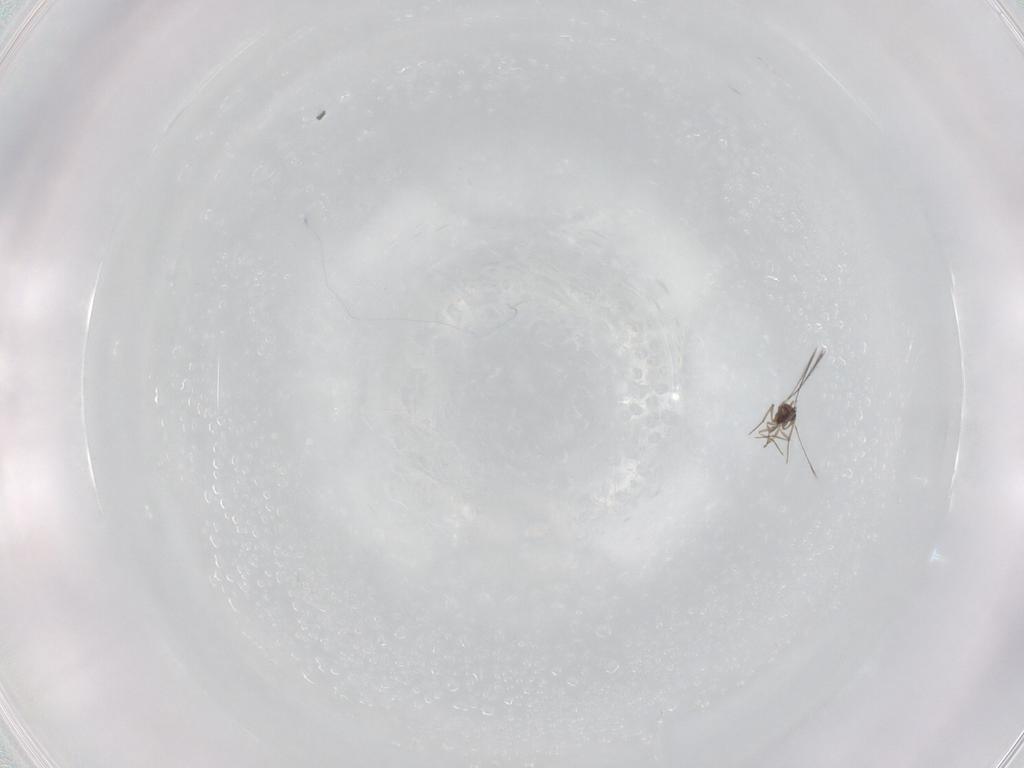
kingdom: Animalia
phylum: Arthropoda
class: Insecta
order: Hymenoptera
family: Mymaridae
